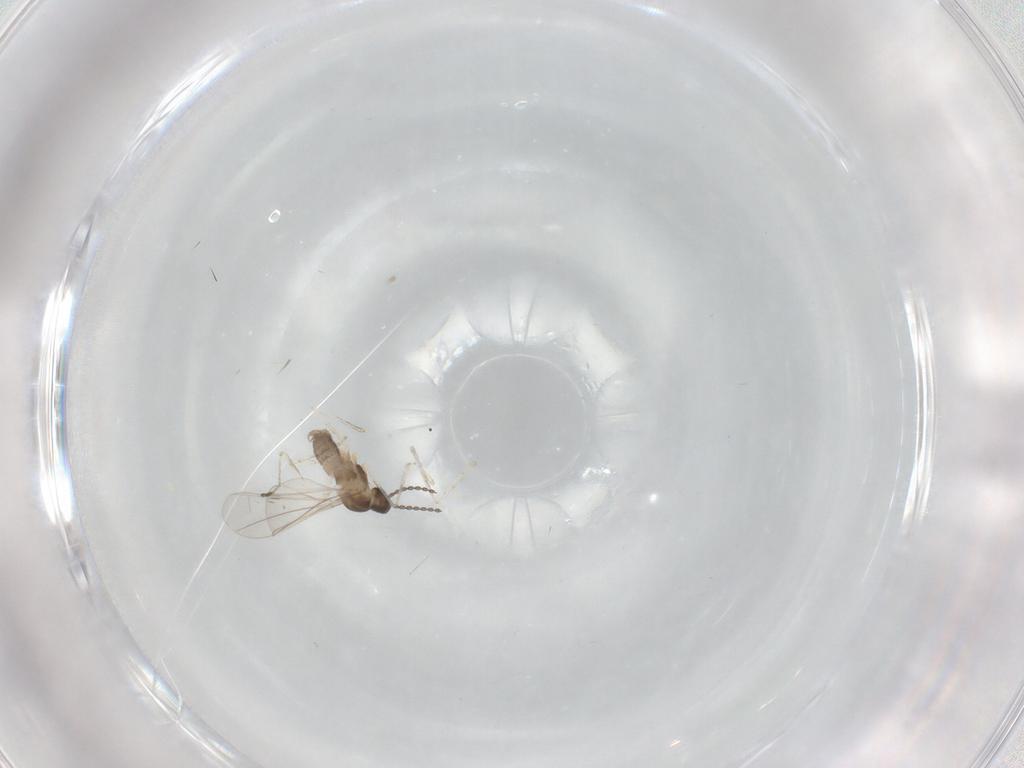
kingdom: Animalia
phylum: Arthropoda
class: Insecta
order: Diptera
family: Cecidomyiidae
